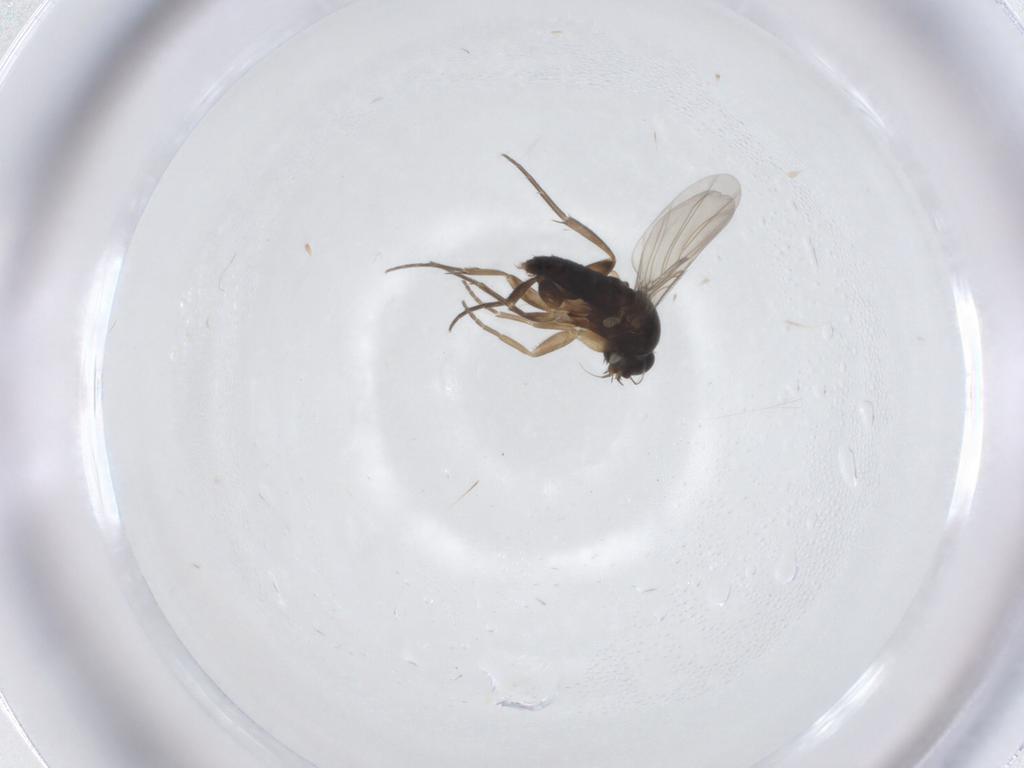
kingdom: Animalia
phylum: Arthropoda
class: Insecta
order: Diptera
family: Phoridae
